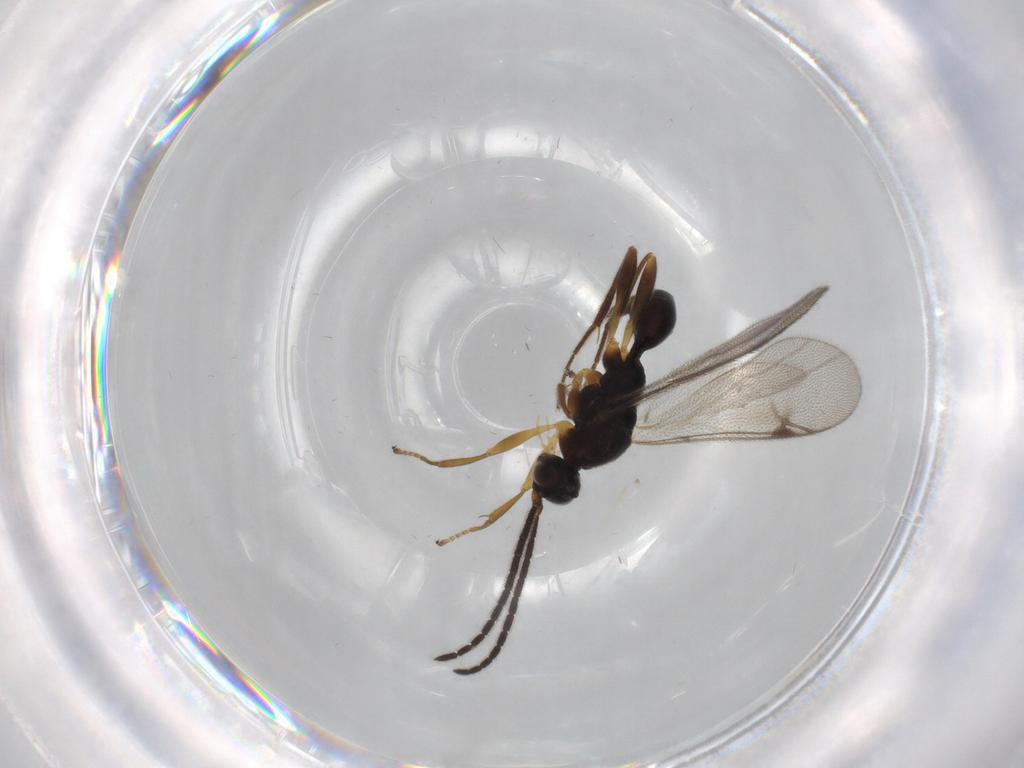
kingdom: Animalia
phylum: Arthropoda
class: Insecta
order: Hymenoptera
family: Proctotrupidae
